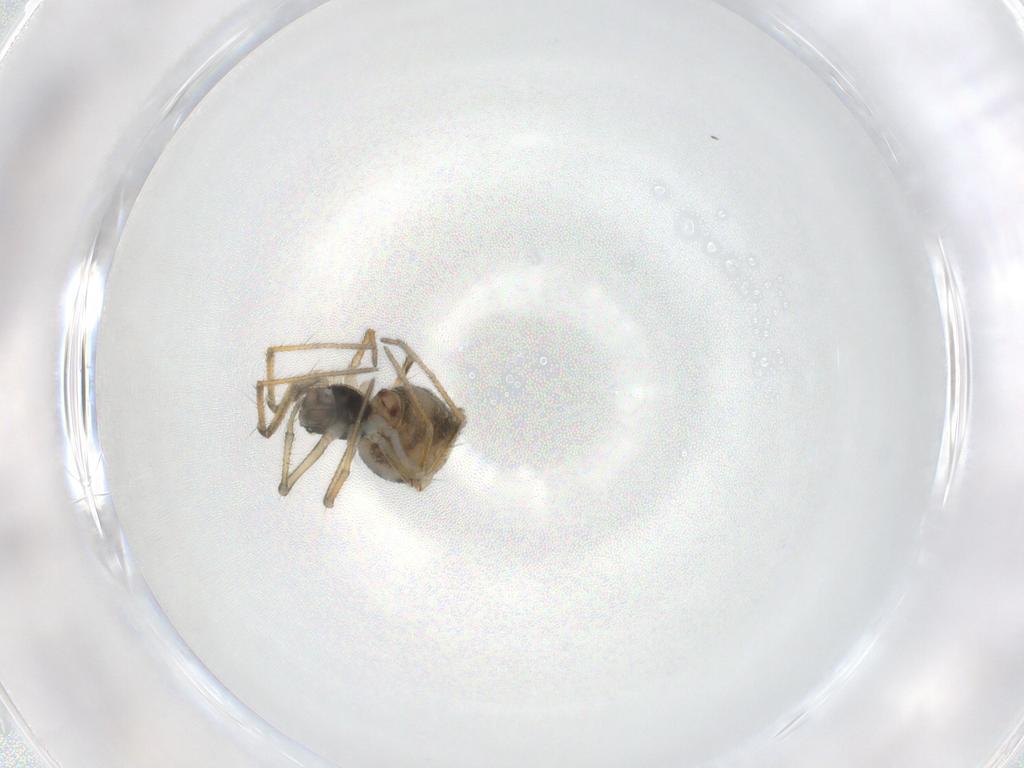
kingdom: Animalia
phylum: Arthropoda
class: Arachnida
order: Araneae
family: Linyphiidae
